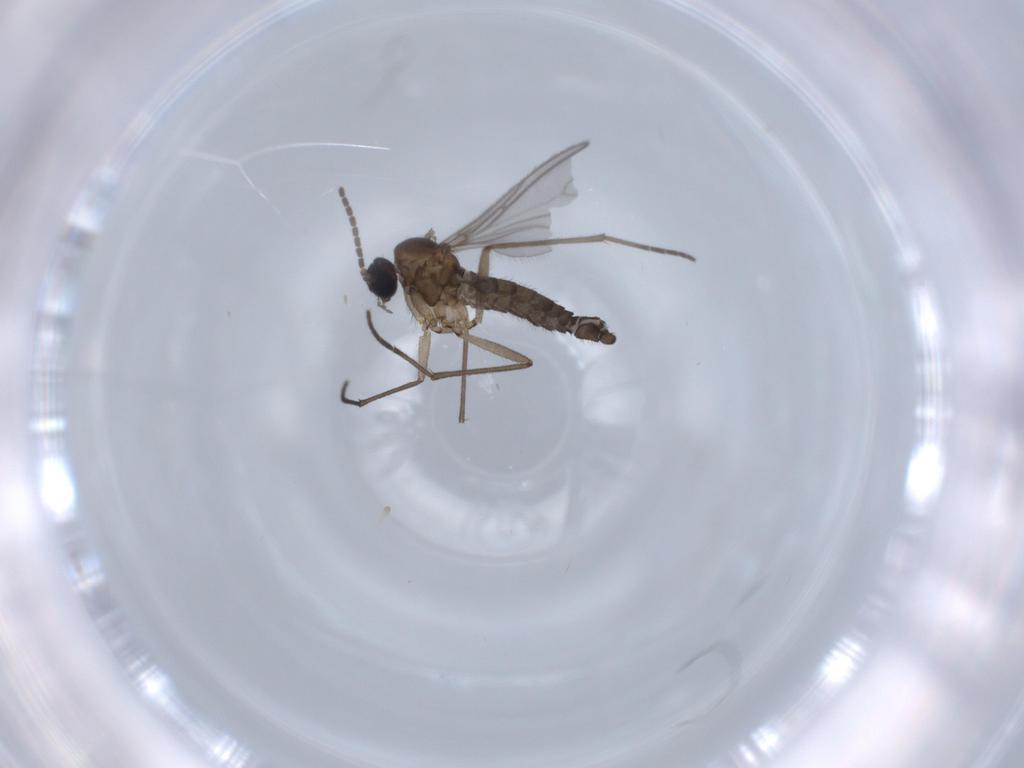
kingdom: Animalia
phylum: Arthropoda
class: Insecta
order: Diptera
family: Sciaridae
